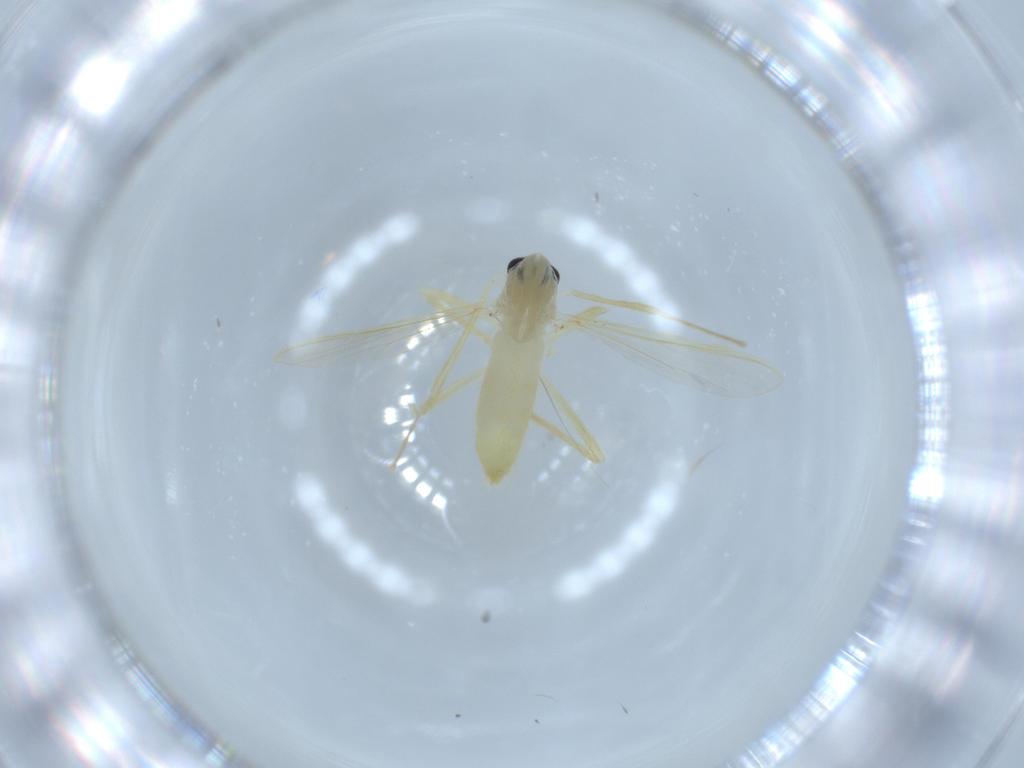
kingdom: Animalia
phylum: Arthropoda
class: Insecta
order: Diptera
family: Chironomidae
